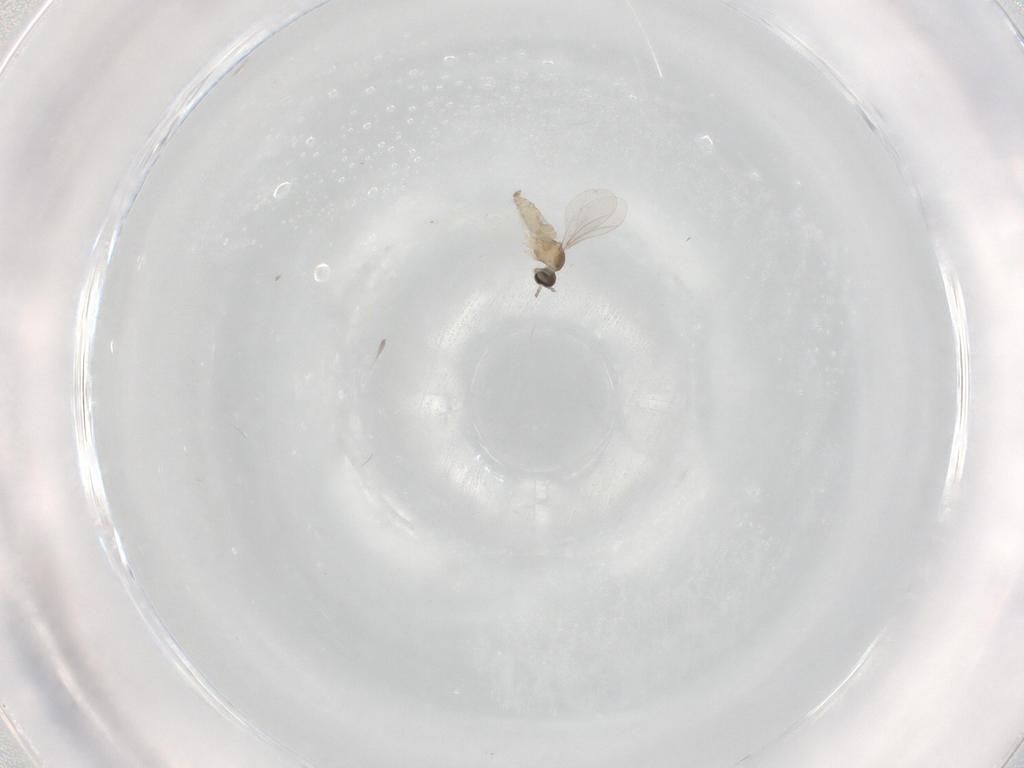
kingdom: Animalia
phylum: Arthropoda
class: Insecta
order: Diptera
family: Cecidomyiidae
